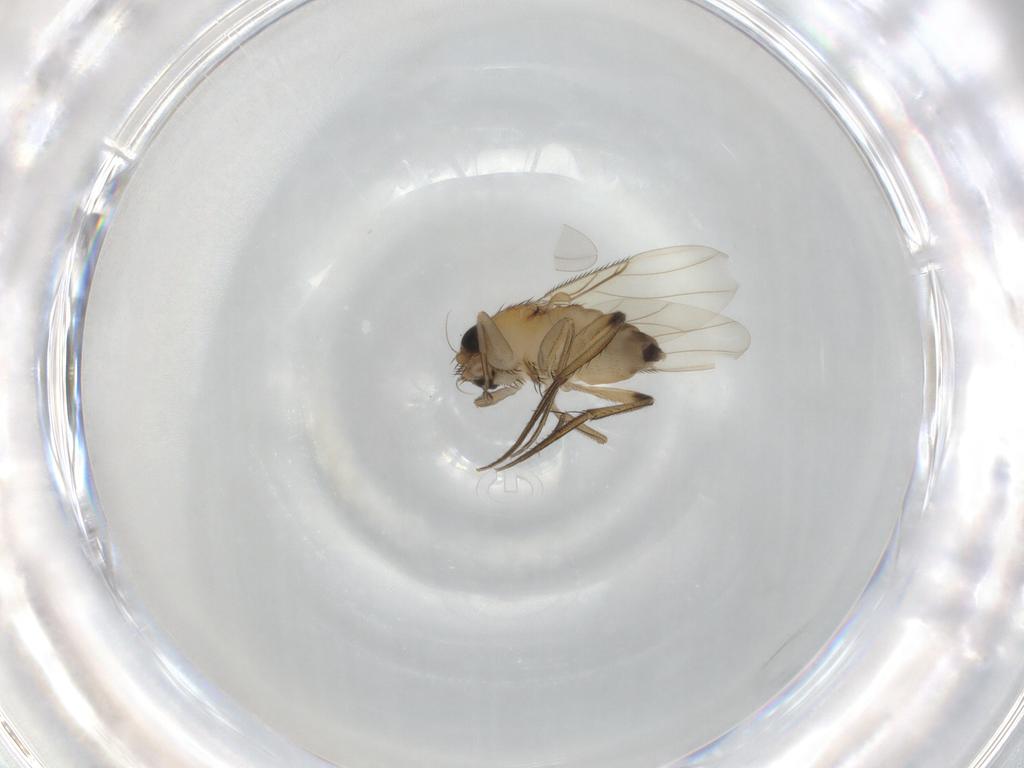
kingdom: Animalia
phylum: Arthropoda
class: Insecta
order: Diptera
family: Phoridae
